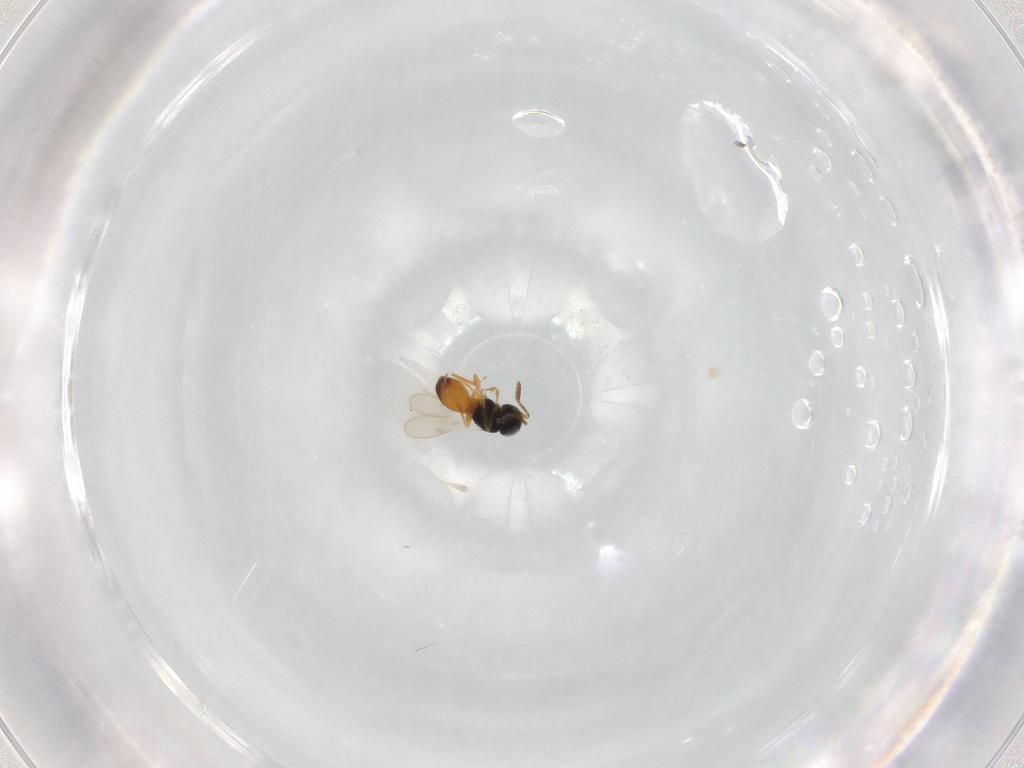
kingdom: Animalia
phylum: Arthropoda
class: Insecta
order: Hymenoptera
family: Scelionidae
